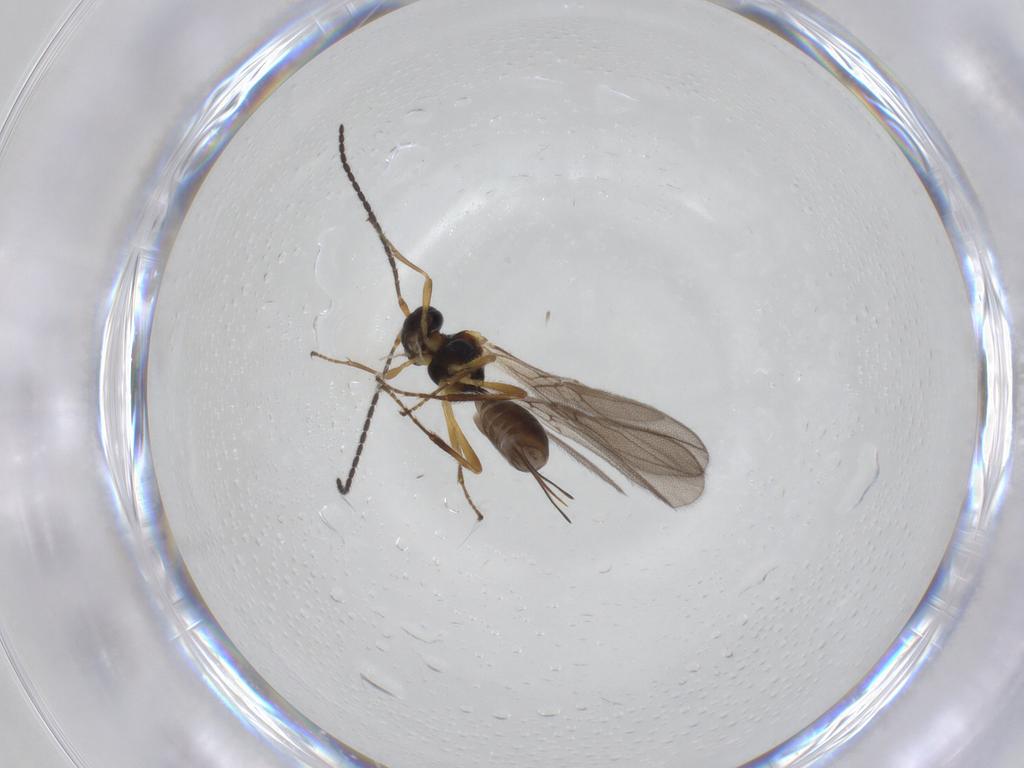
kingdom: Animalia
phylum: Arthropoda
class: Insecta
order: Hymenoptera
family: Braconidae
